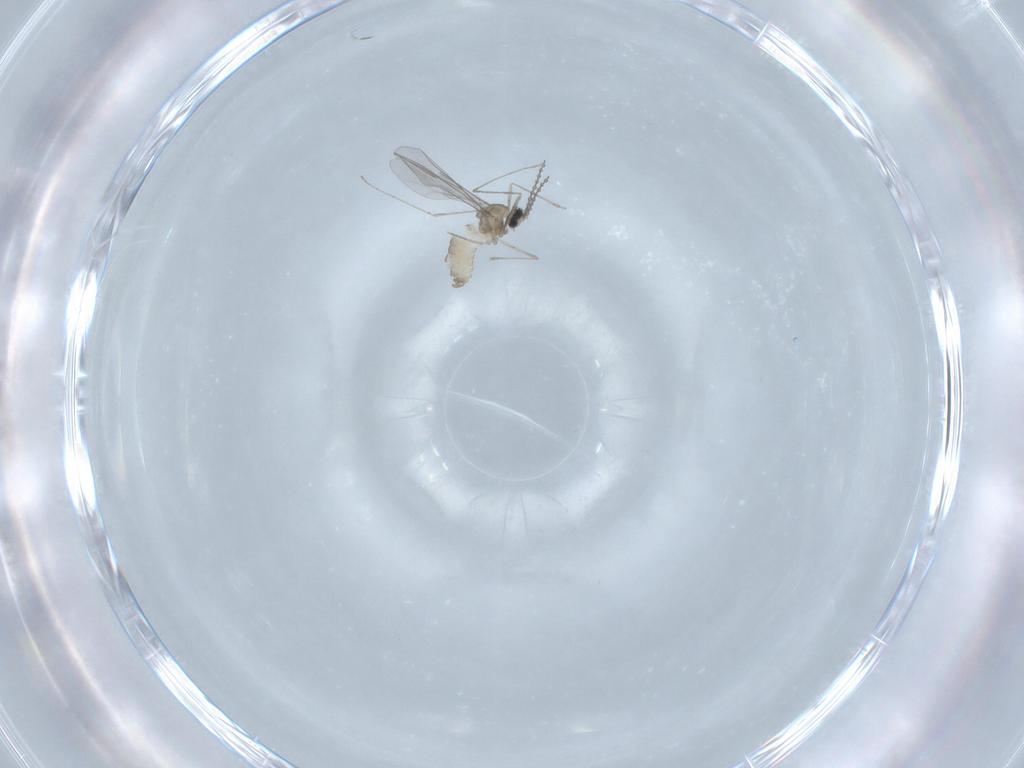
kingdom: Animalia
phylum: Arthropoda
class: Insecta
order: Diptera
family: Cecidomyiidae
